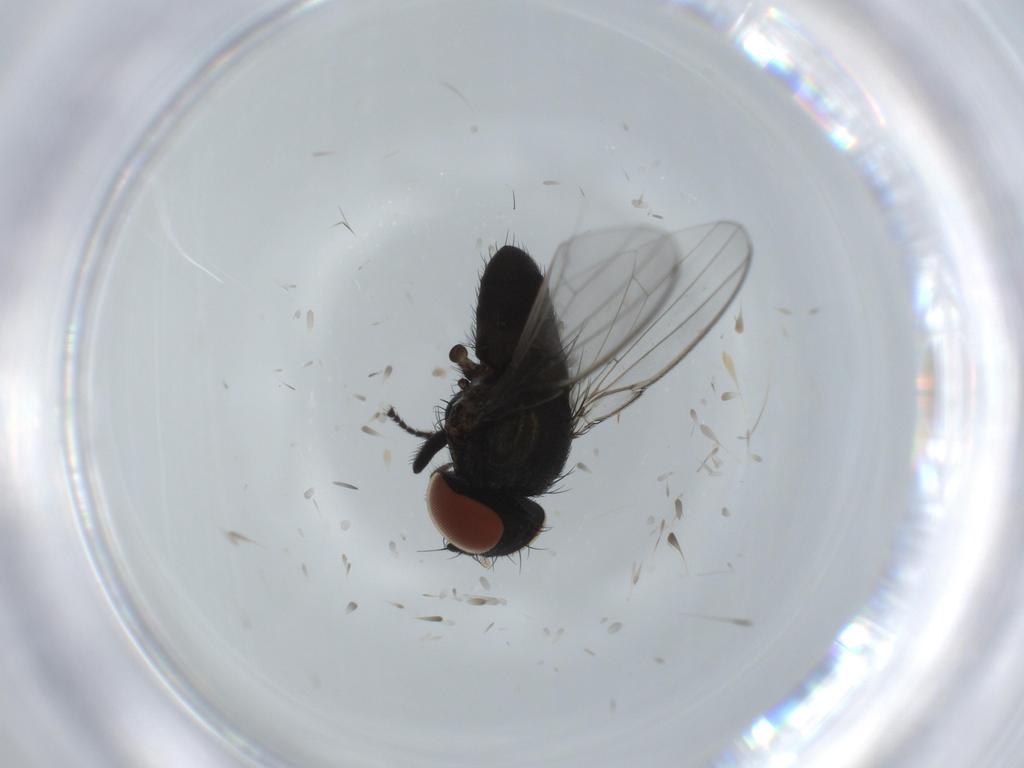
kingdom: Animalia
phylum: Arthropoda
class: Insecta
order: Diptera
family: Milichiidae
